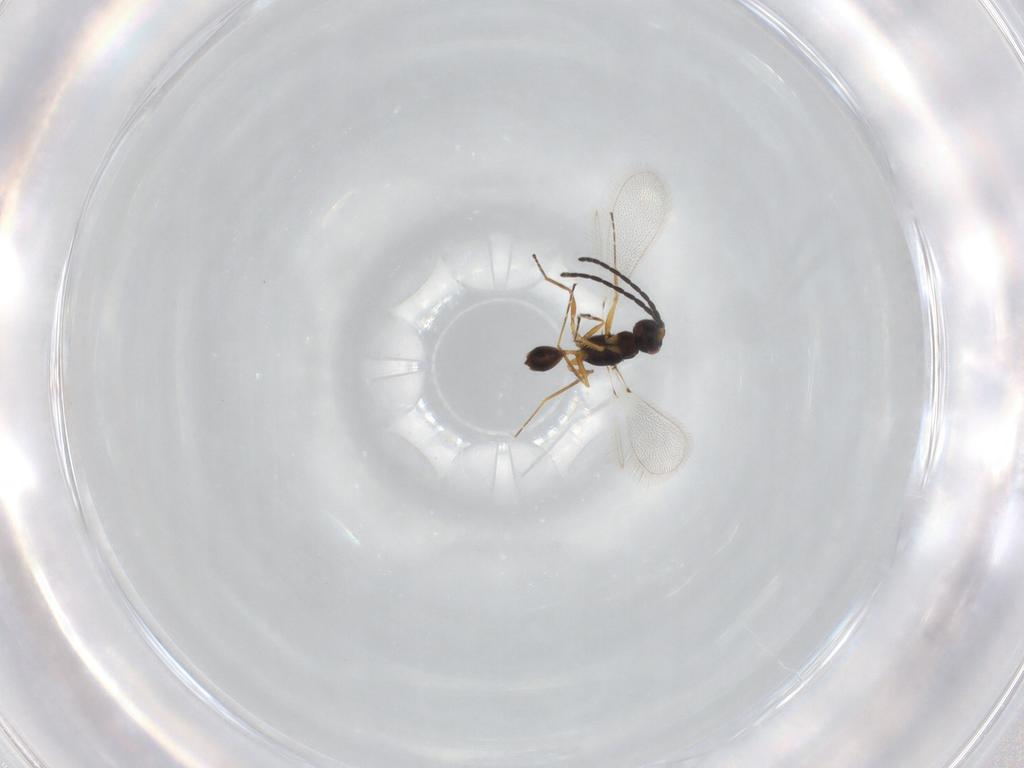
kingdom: Animalia
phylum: Arthropoda
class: Insecta
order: Hymenoptera
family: Mymaridae
